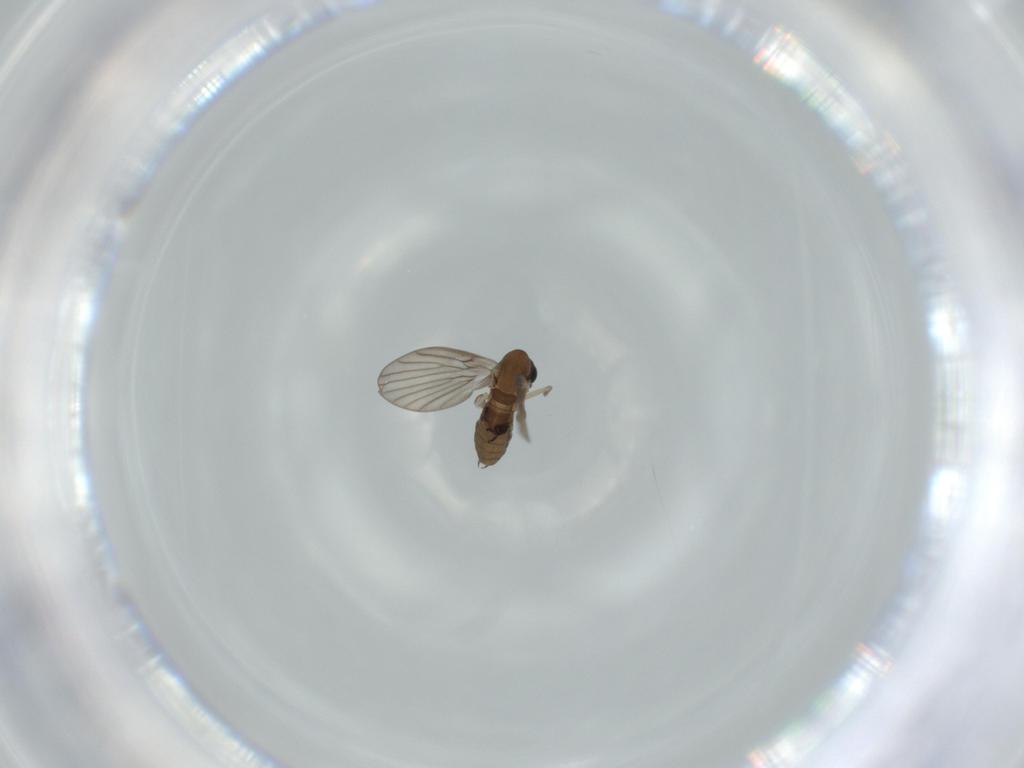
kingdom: Animalia
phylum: Arthropoda
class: Insecta
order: Diptera
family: Psychodidae
